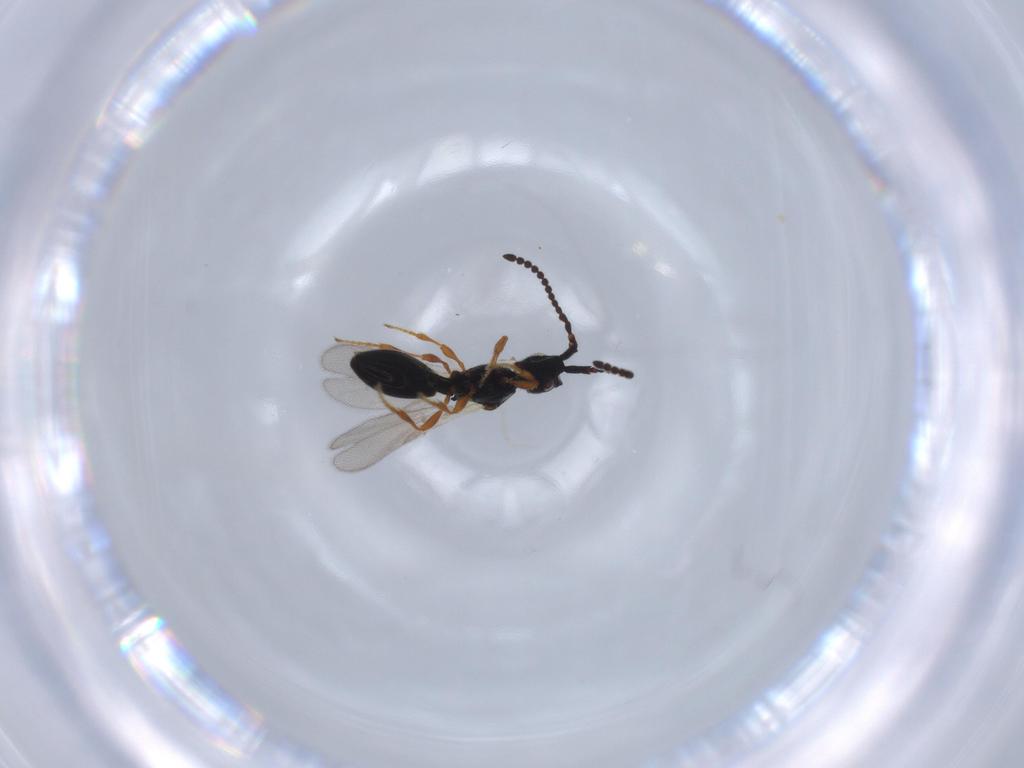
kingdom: Animalia
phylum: Arthropoda
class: Insecta
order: Hymenoptera
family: Diapriidae
